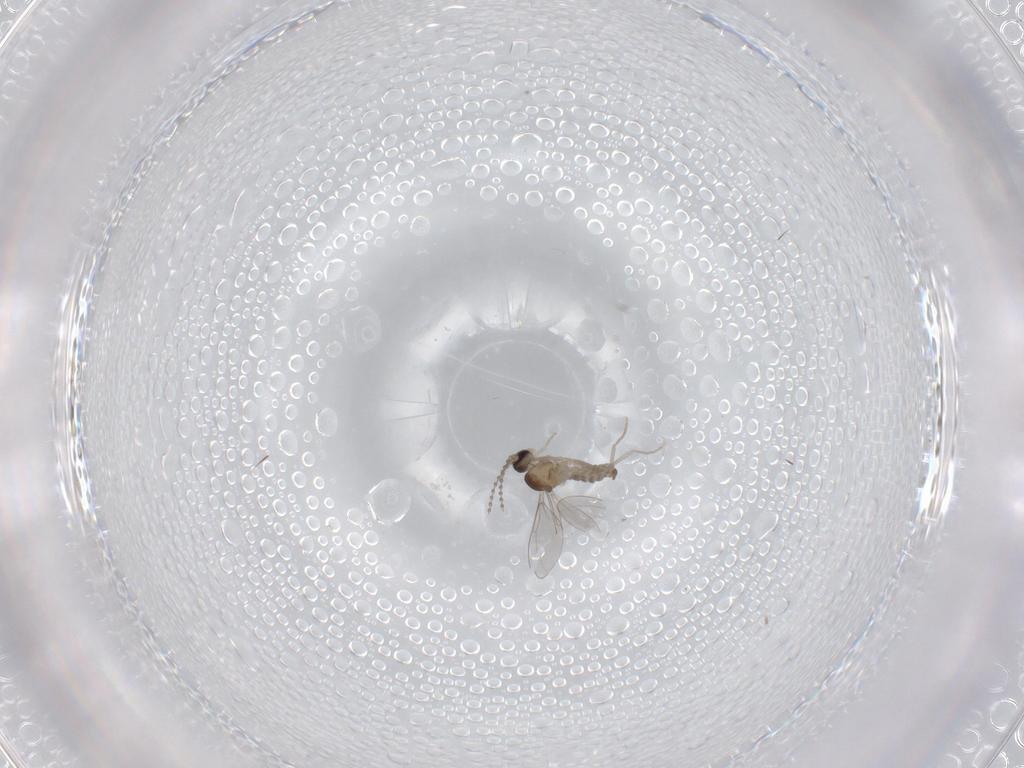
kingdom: Animalia
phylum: Arthropoda
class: Insecta
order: Diptera
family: Cecidomyiidae
